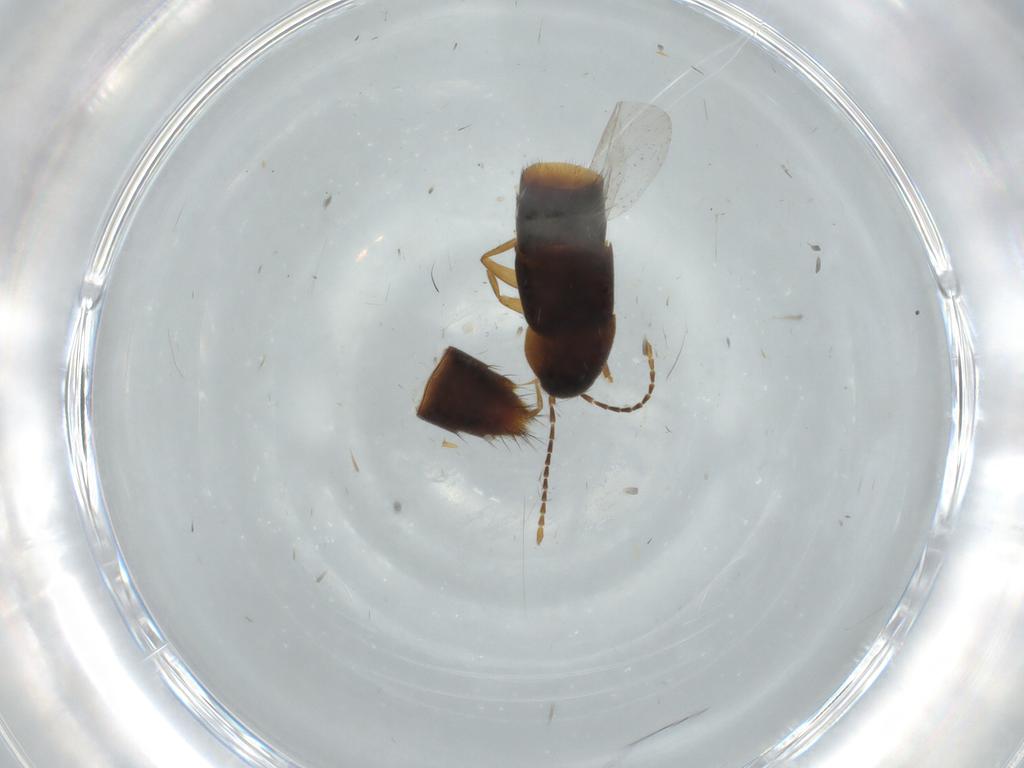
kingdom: Animalia
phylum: Arthropoda
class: Insecta
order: Coleoptera
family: Staphylinidae
